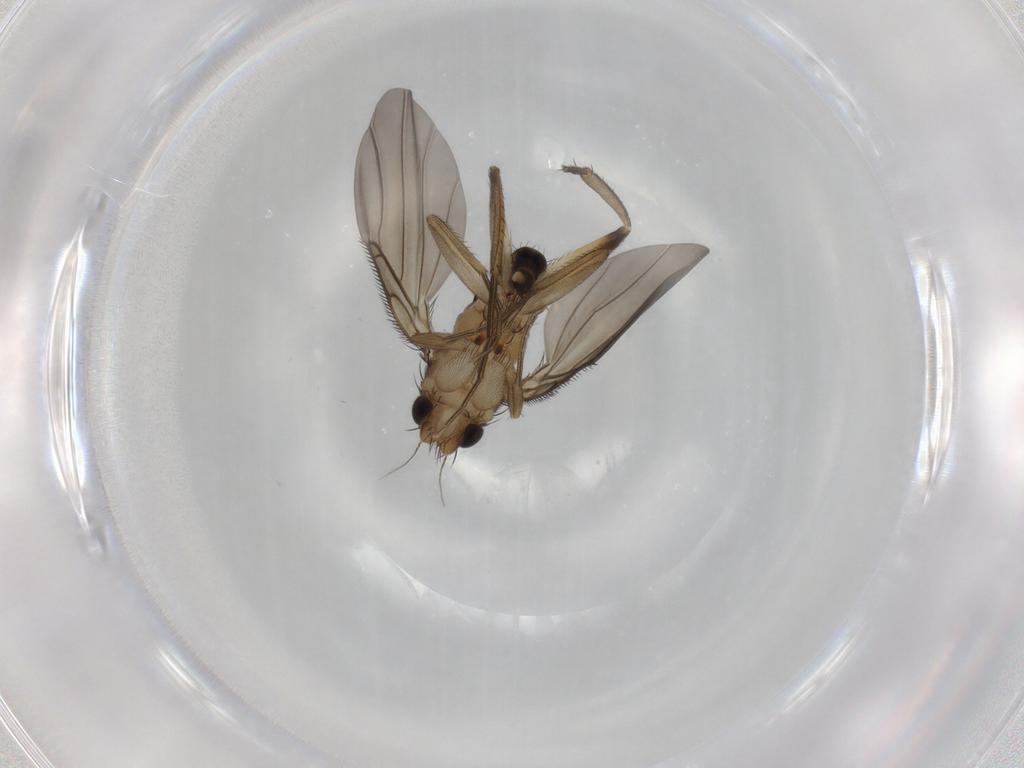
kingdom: Animalia
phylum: Arthropoda
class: Insecta
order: Diptera
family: Phoridae
